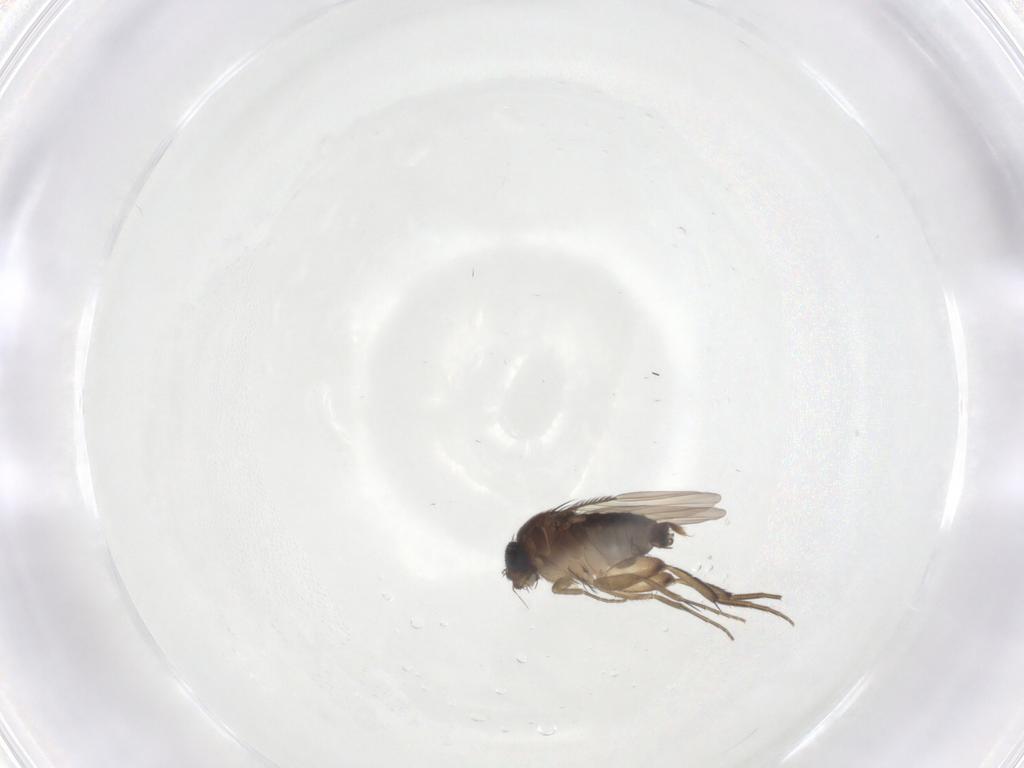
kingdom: Animalia
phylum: Arthropoda
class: Insecta
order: Diptera
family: Phoridae
